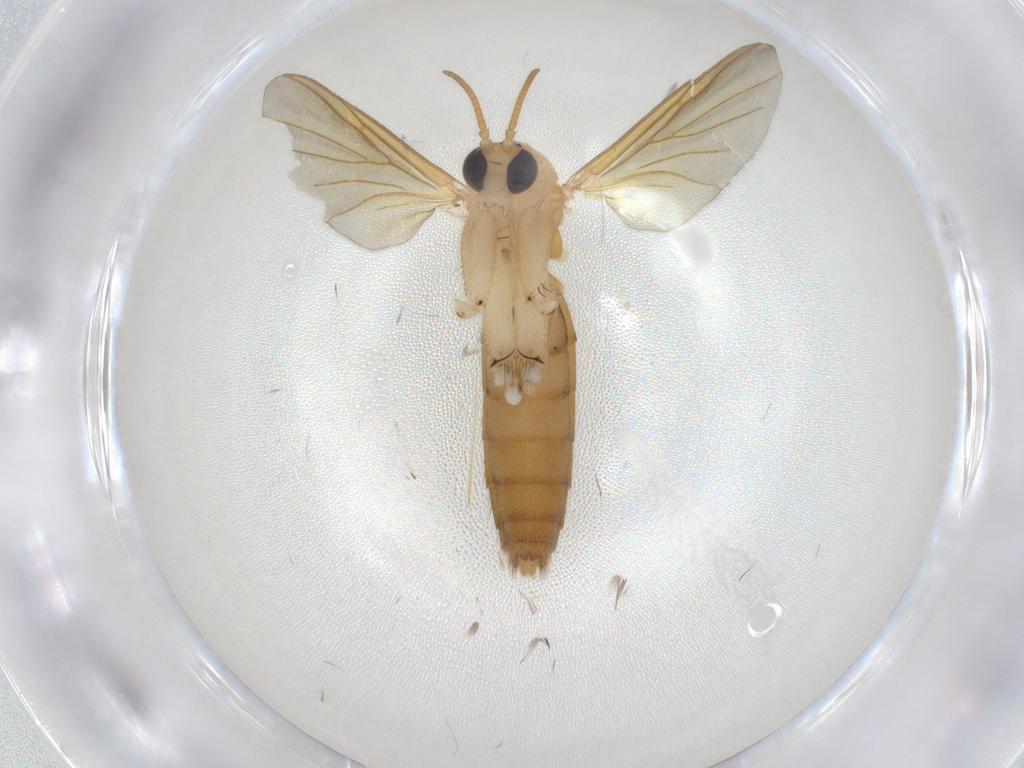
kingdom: Animalia
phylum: Arthropoda
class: Insecta
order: Diptera
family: Mycetophilidae
